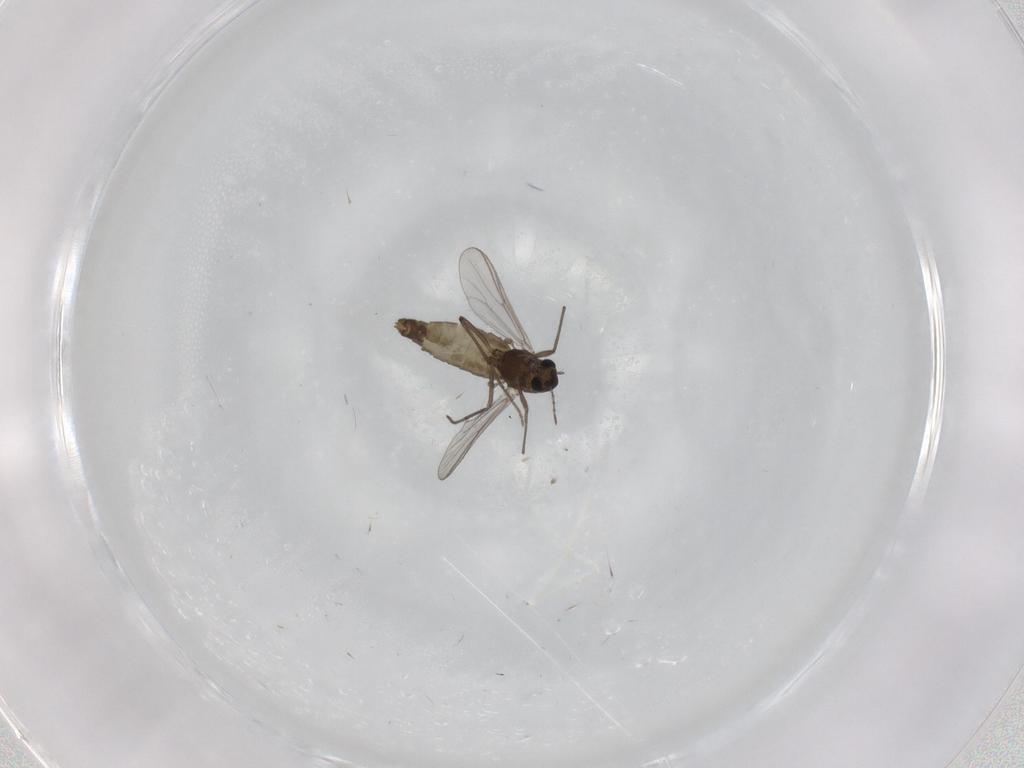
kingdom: Animalia
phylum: Arthropoda
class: Insecta
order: Diptera
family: Chironomidae
